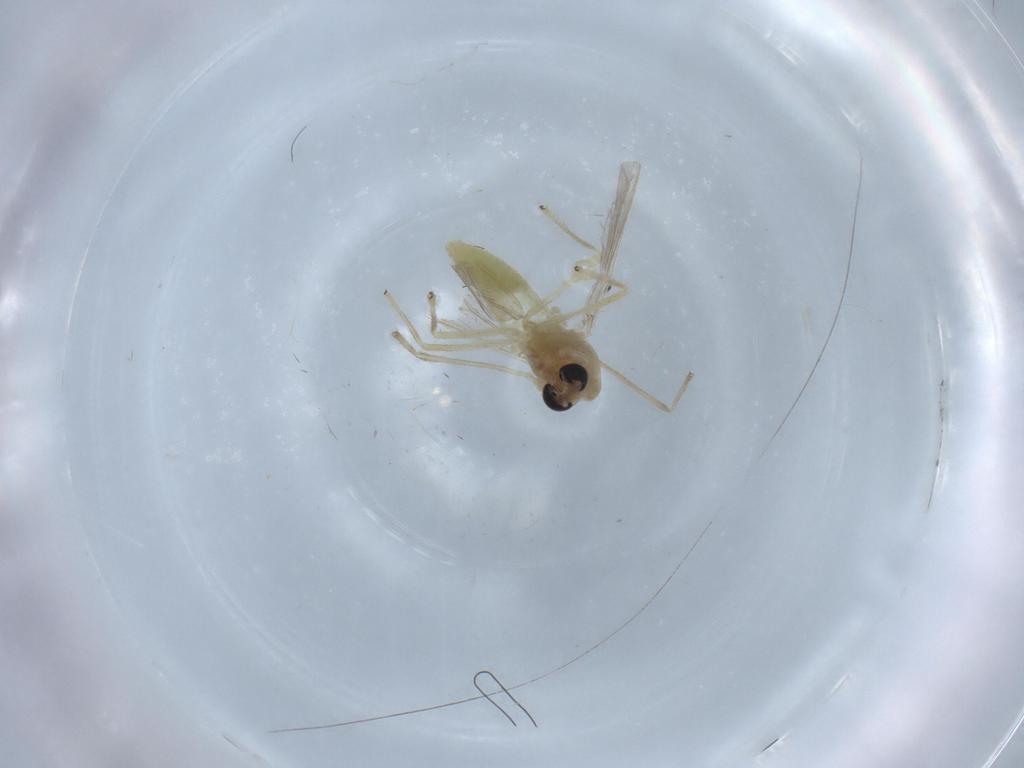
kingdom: Animalia
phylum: Arthropoda
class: Insecta
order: Diptera
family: Chironomidae
